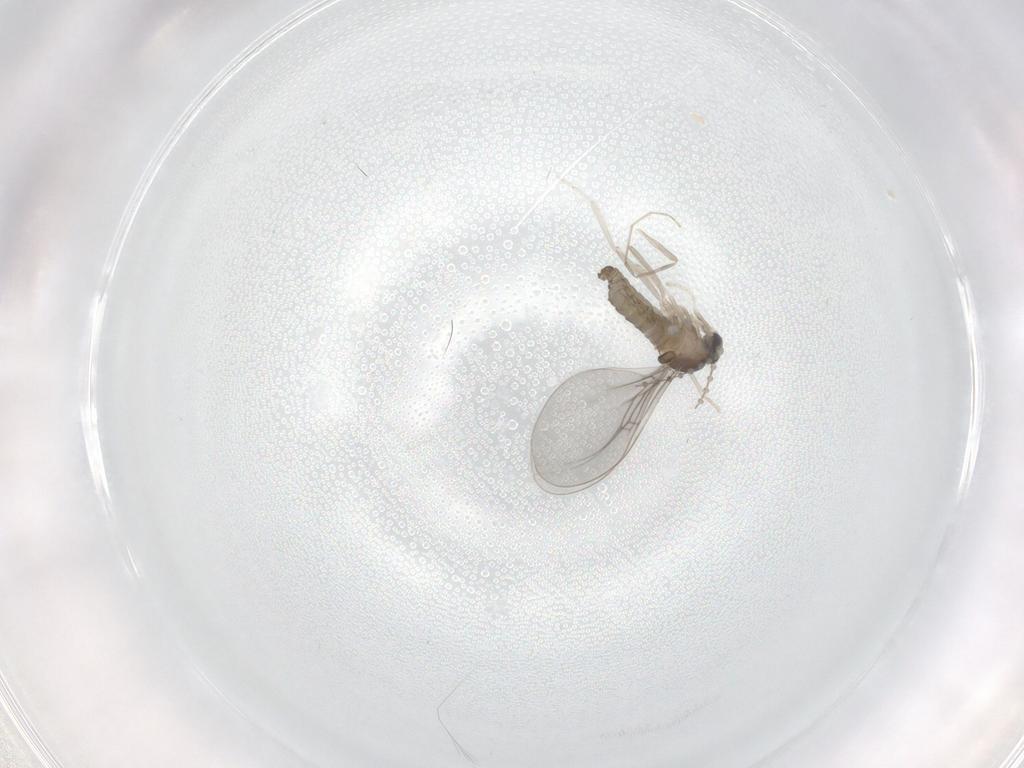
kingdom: Animalia
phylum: Arthropoda
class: Insecta
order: Diptera
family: Cecidomyiidae
